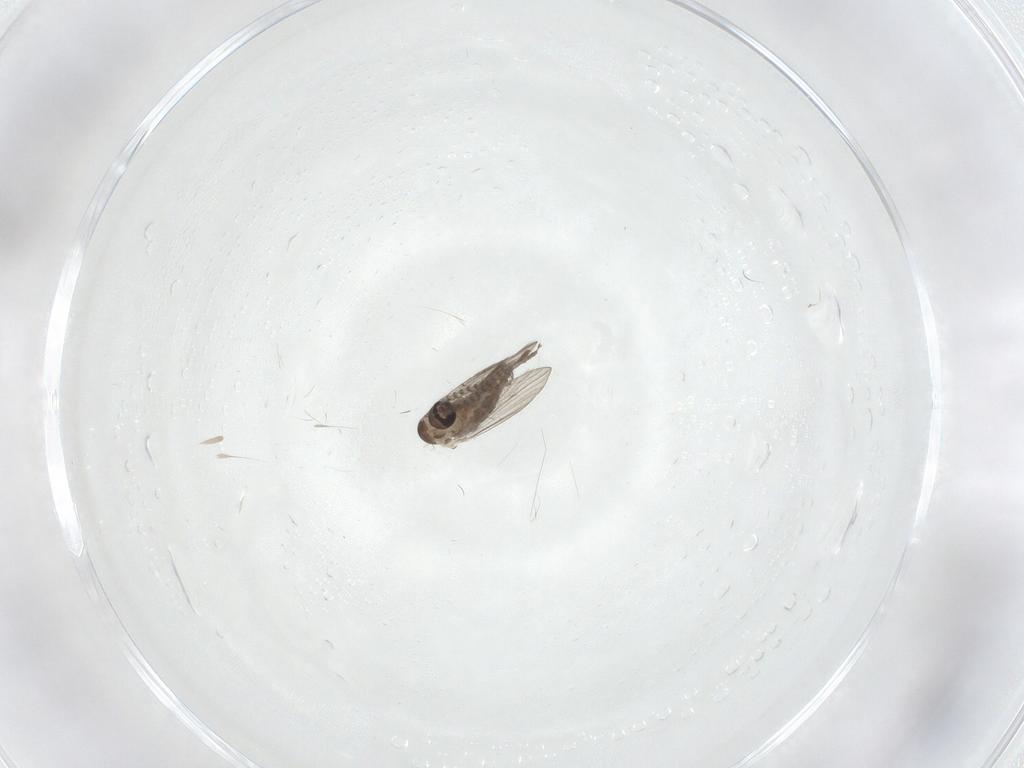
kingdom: Animalia
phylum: Arthropoda
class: Insecta
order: Diptera
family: Psychodidae
